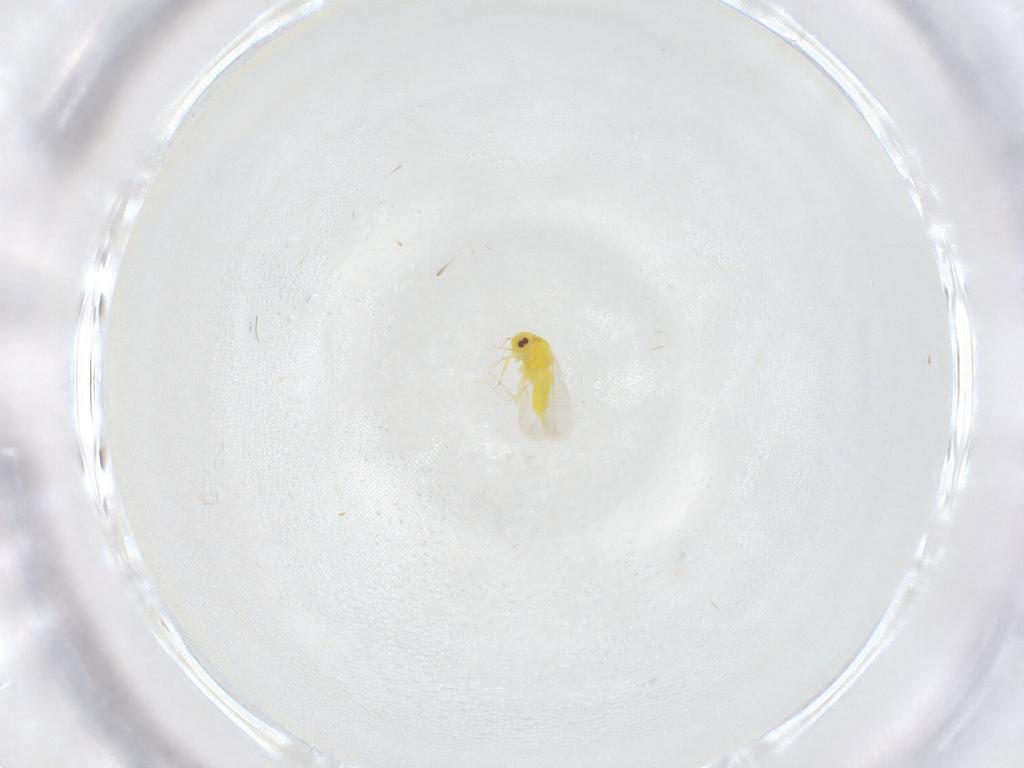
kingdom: Animalia
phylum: Arthropoda
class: Insecta
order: Hemiptera
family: Aleyrodidae
